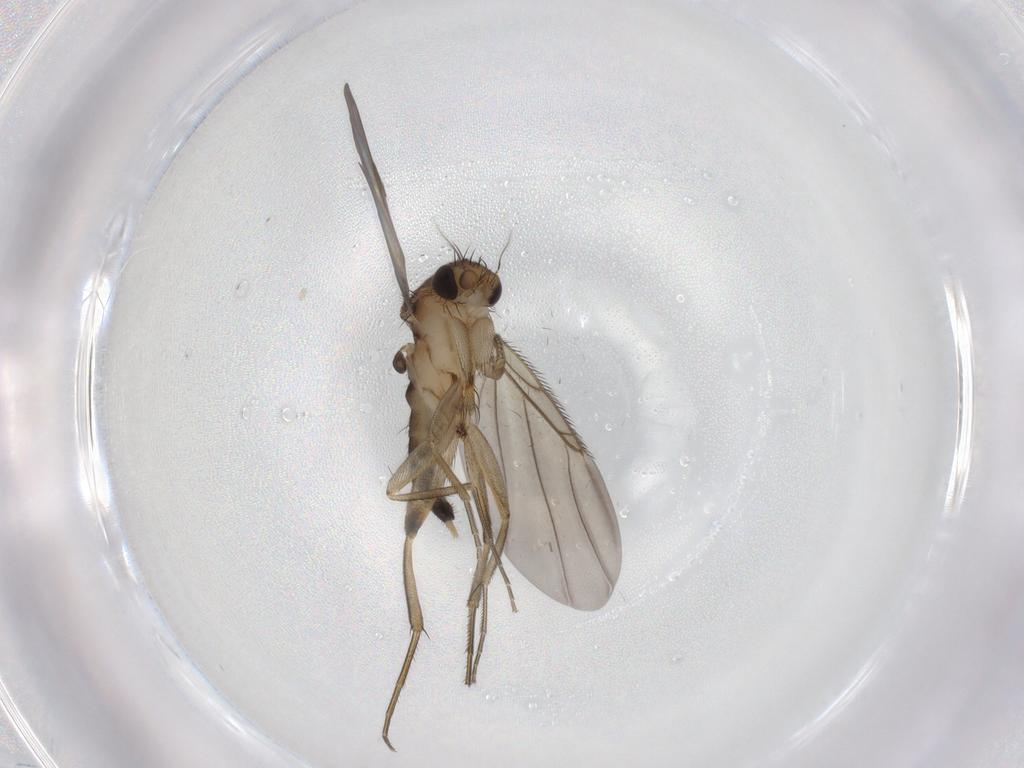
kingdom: Animalia
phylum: Arthropoda
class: Insecta
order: Diptera
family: Phoridae
